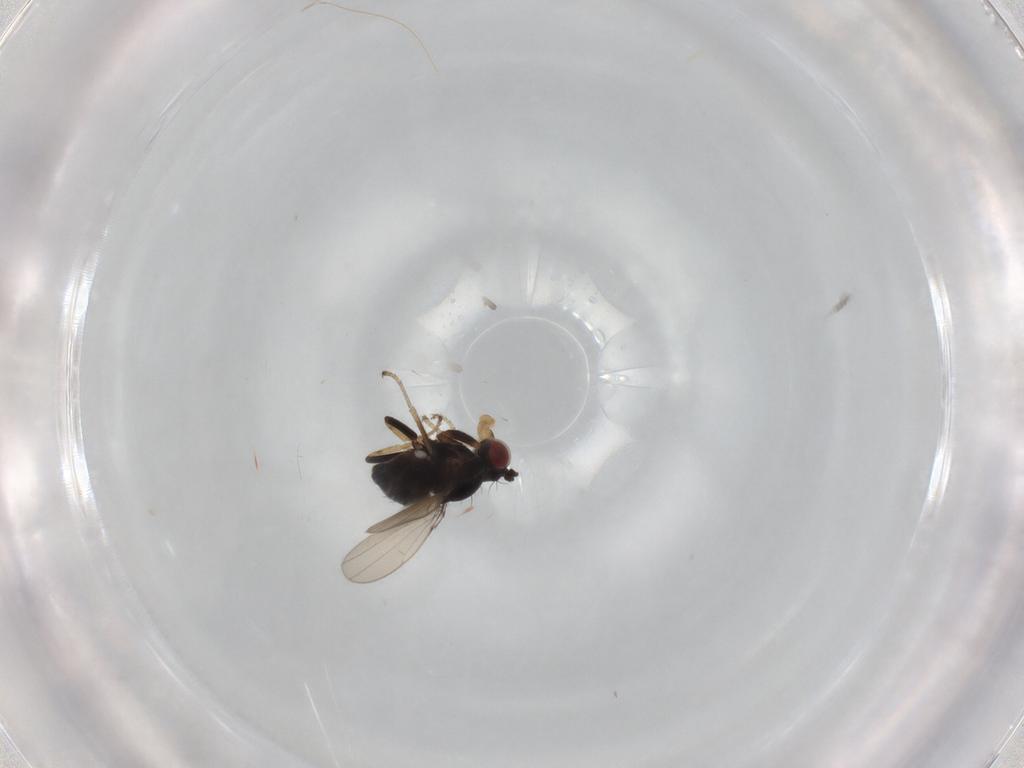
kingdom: Animalia
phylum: Arthropoda
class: Insecta
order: Diptera
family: Ephydridae
